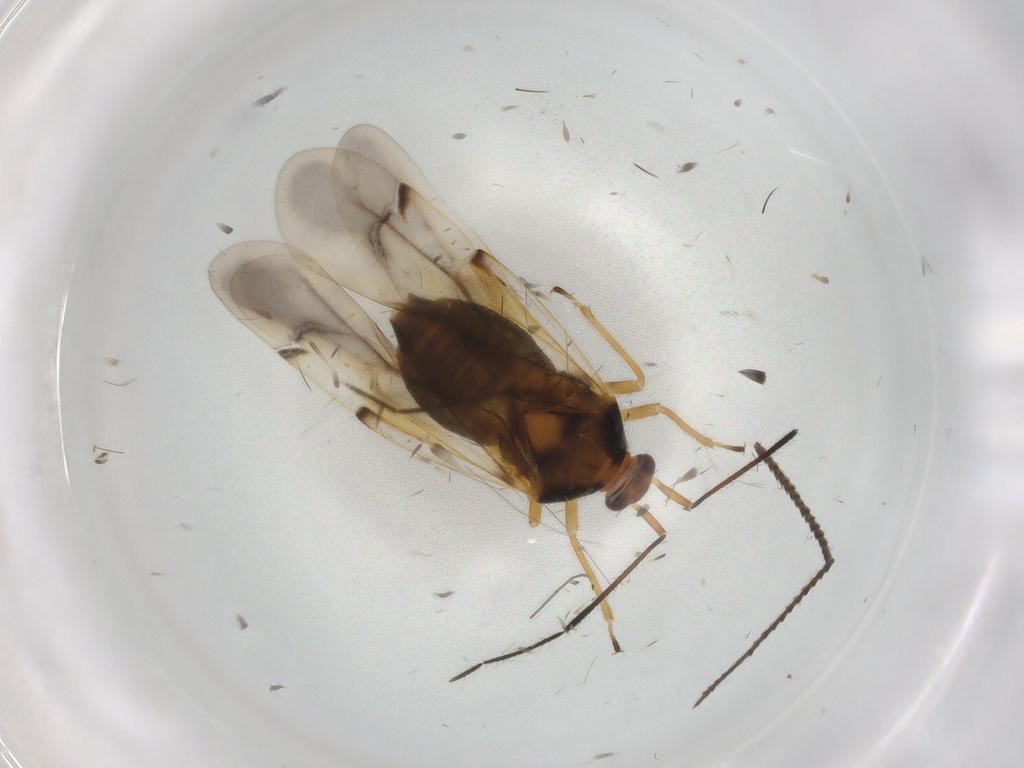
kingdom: Animalia
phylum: Arthropoda
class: Insecta
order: Hemiptera
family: Miridae
